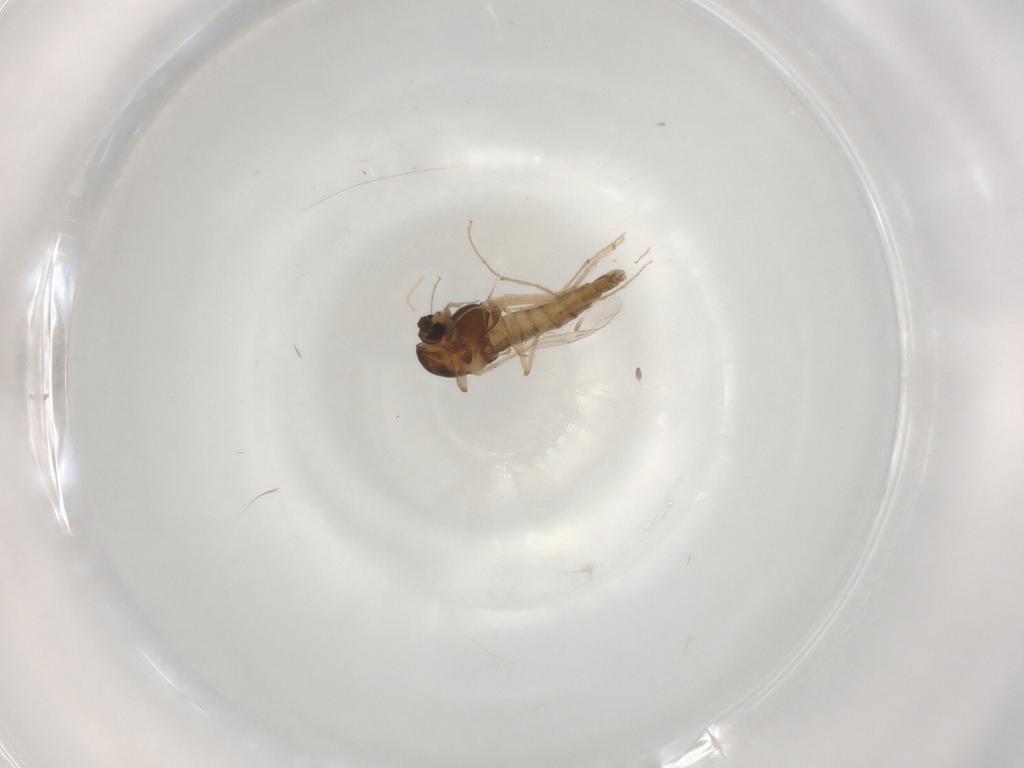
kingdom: Animalia
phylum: Arthropoda
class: Insecta
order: Diptera
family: Chironomidae
